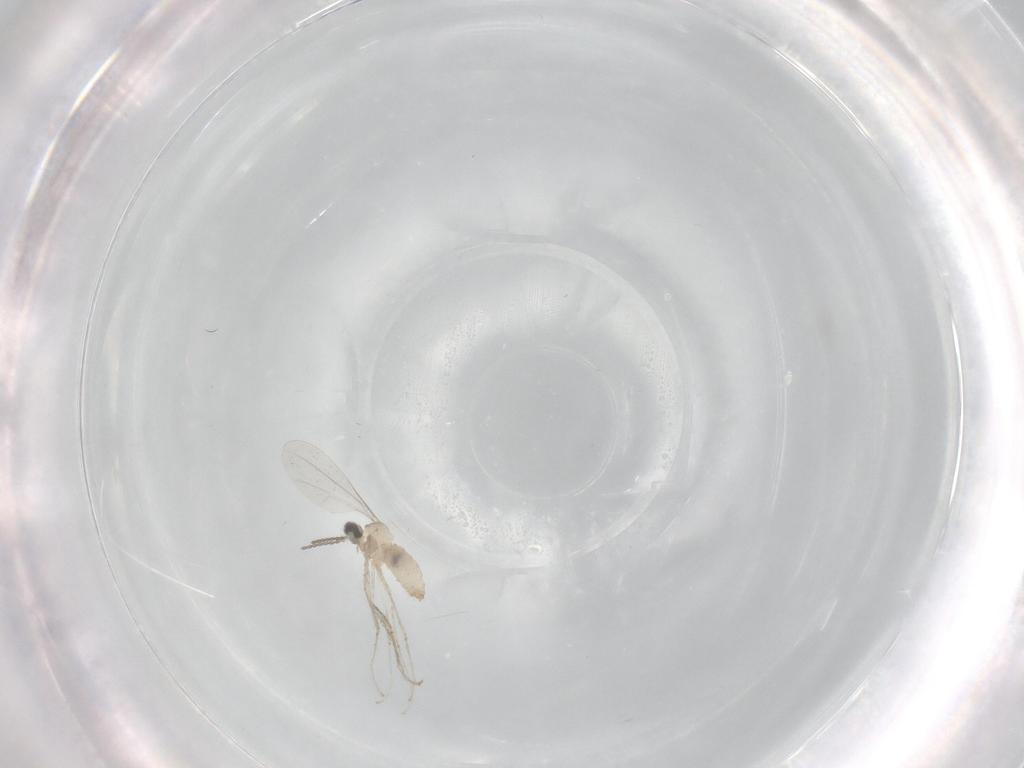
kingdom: Animalia
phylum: Arthropoda
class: Insecta
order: Diptera
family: Cecidomyiidae
